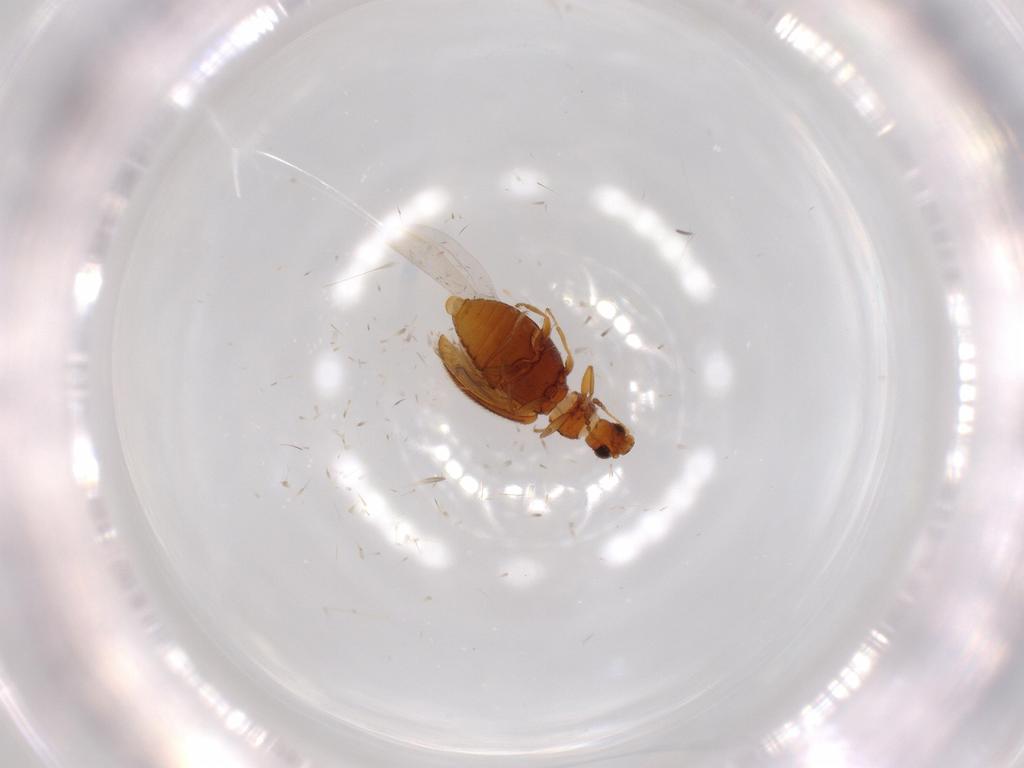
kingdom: Animalia
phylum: Arthropoda
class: Insecta
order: Coleoptera
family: Latridiidae
